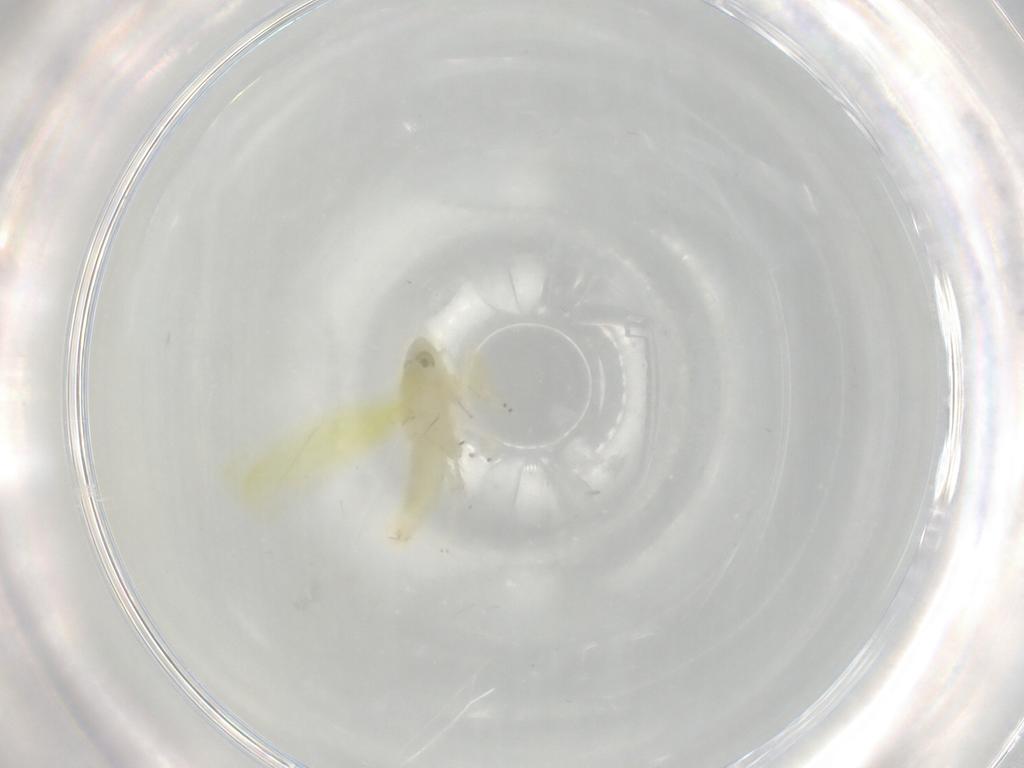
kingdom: Animalia
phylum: Arthropoda
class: Insecta
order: Hemiptera
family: Cicadellidae
